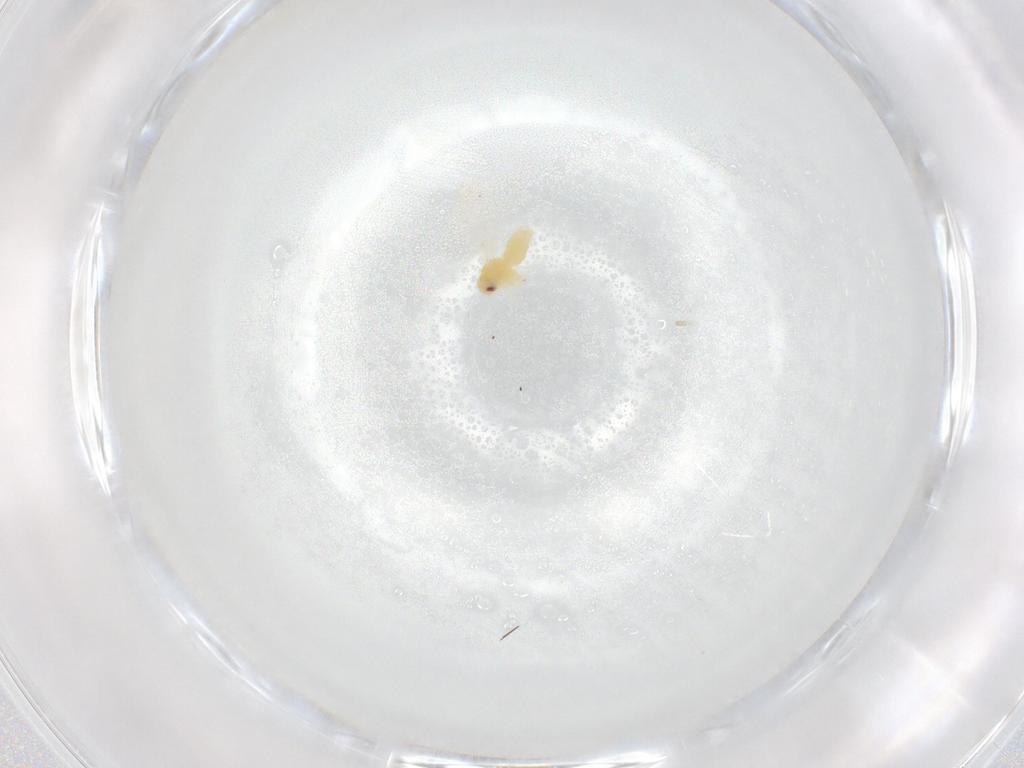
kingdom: Animalia
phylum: Arthropoda
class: Insecta
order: Hemiptera
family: Aleyrodidae
